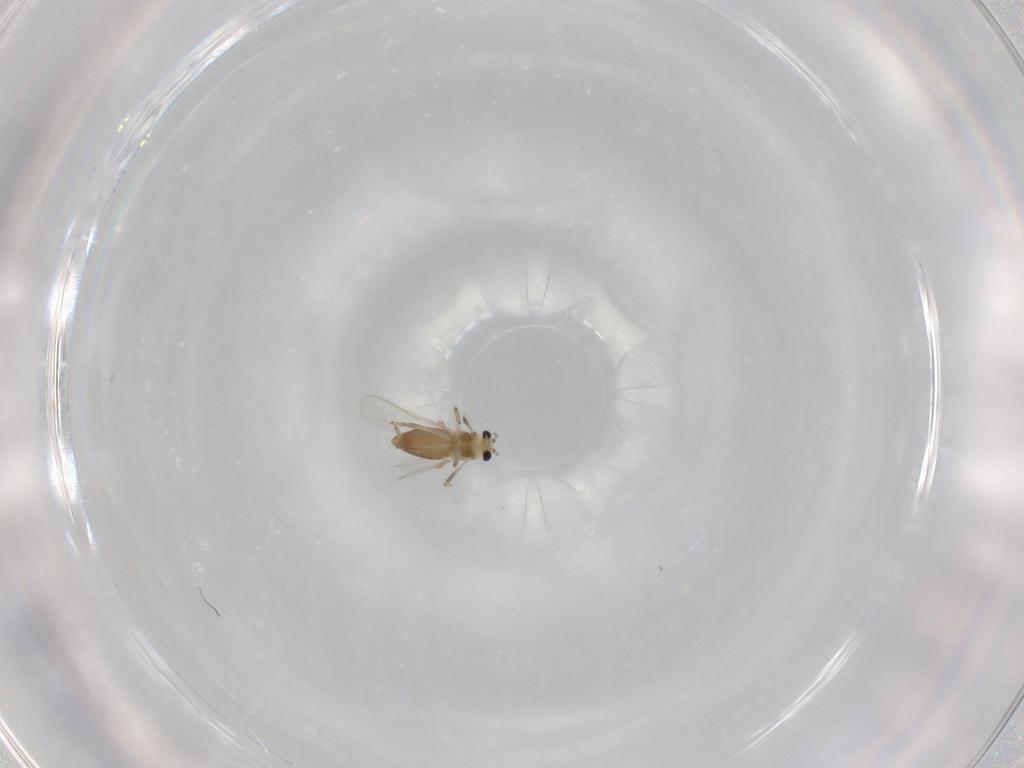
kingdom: Animalia
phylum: Arthropoda
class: Insecta
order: Diptera
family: Chironomidae
